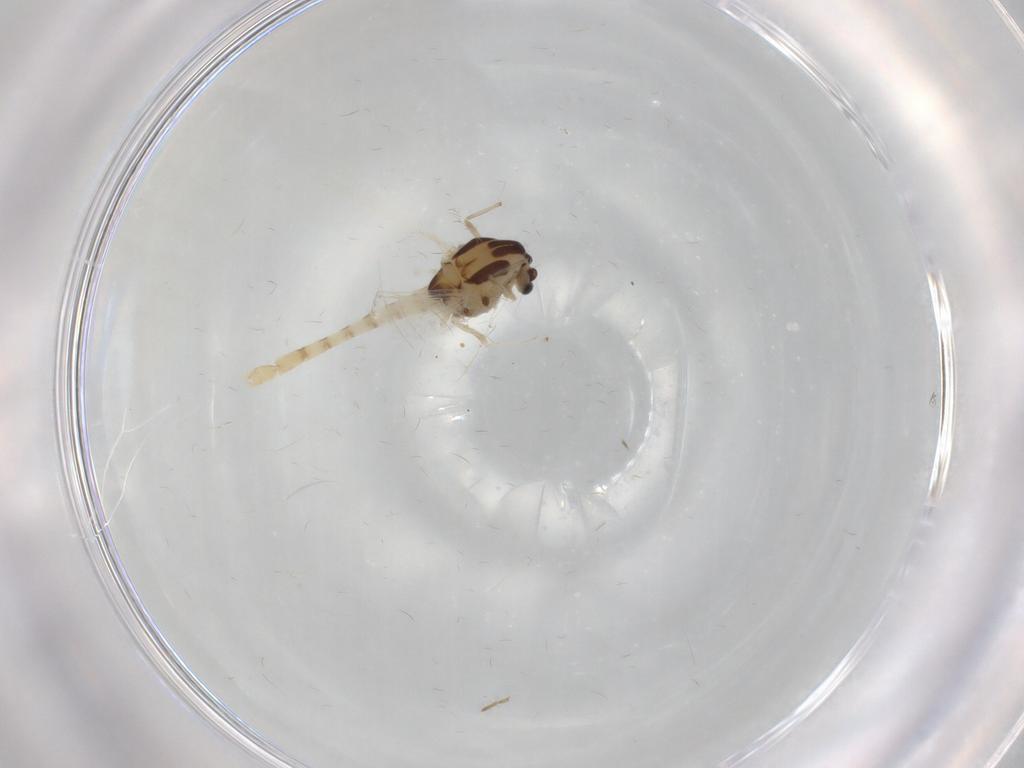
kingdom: Animalia
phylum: Arthropoda
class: Insecta
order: Diptera
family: Chironomidae
